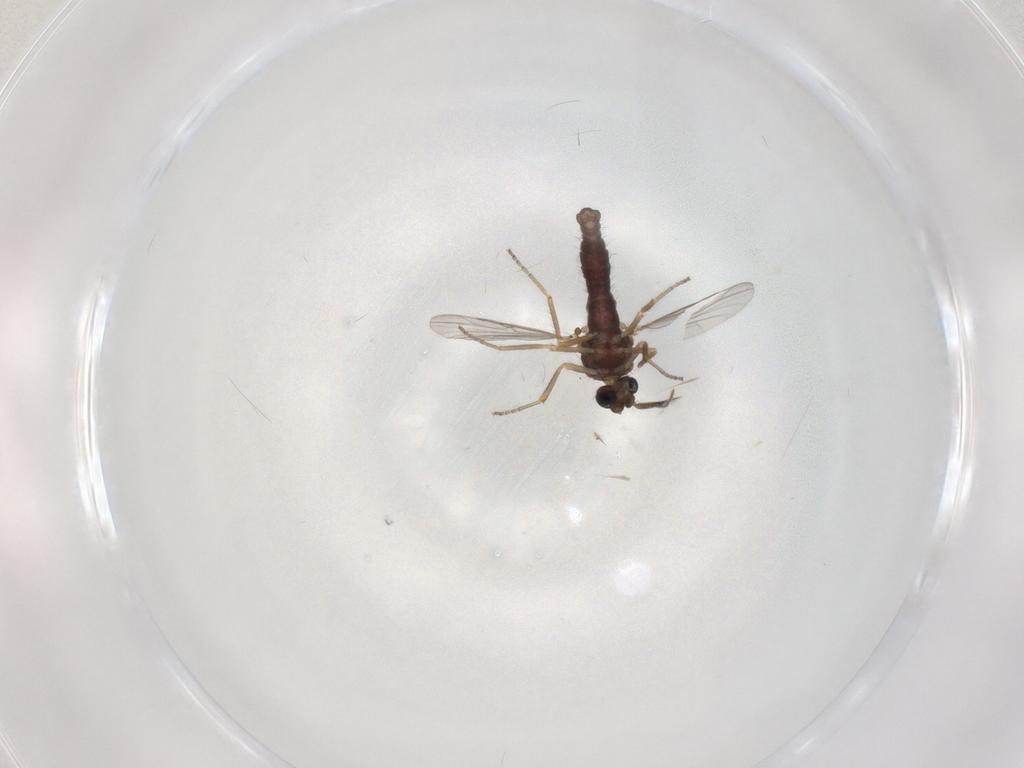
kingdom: Animalia
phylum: Arthropoda
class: Insecta
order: Diptera
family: Ceratopogonidae
